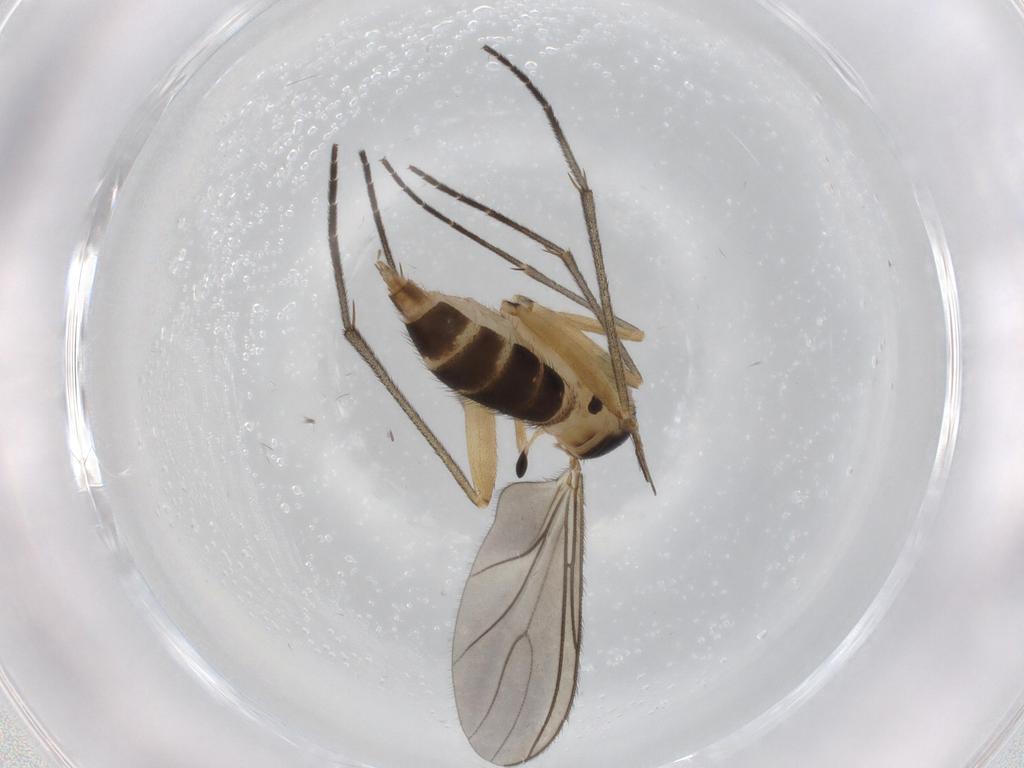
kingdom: Animalia
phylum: Arthropoda
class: Insecta
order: Diptera
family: Sciaridae
